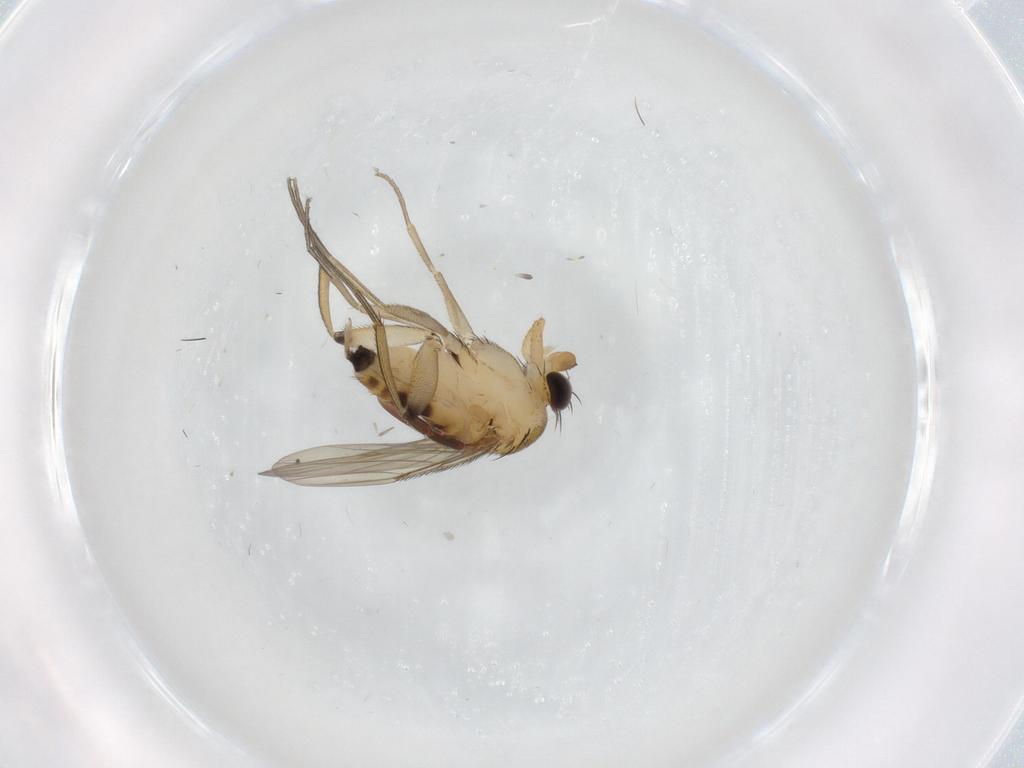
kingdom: Animalia
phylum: Arthropoda
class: Insecta
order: Diptera
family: Phoridae
